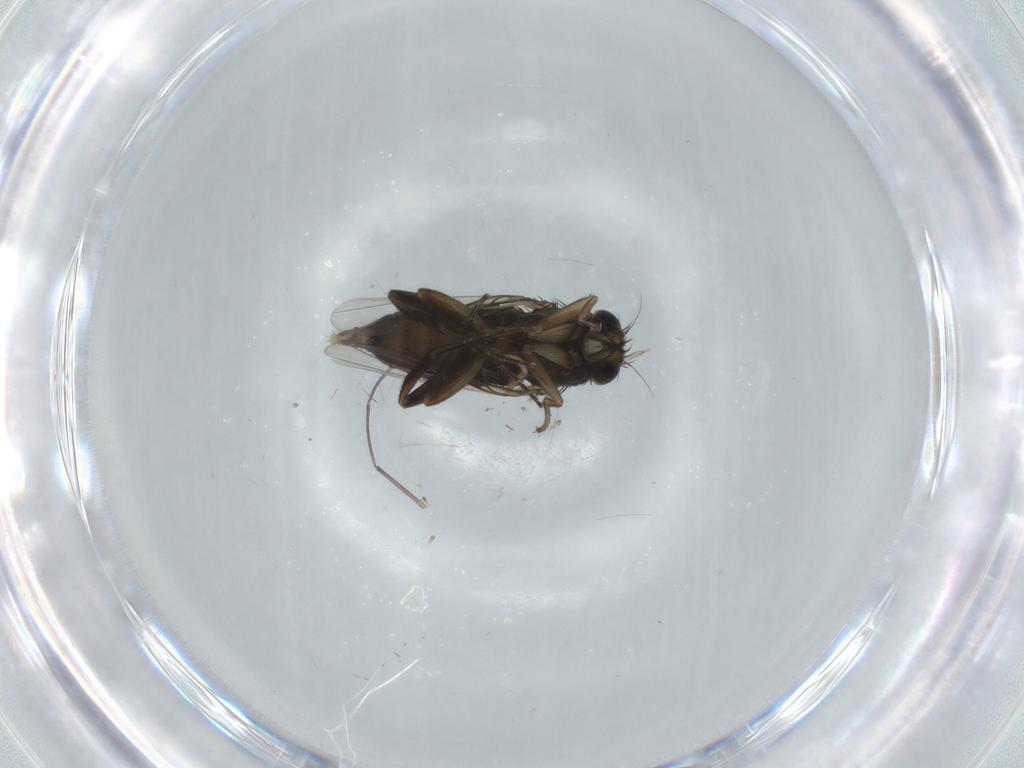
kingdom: Animalia
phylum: Arthropoda
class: Insecta
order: Diptera
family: Phoridae
